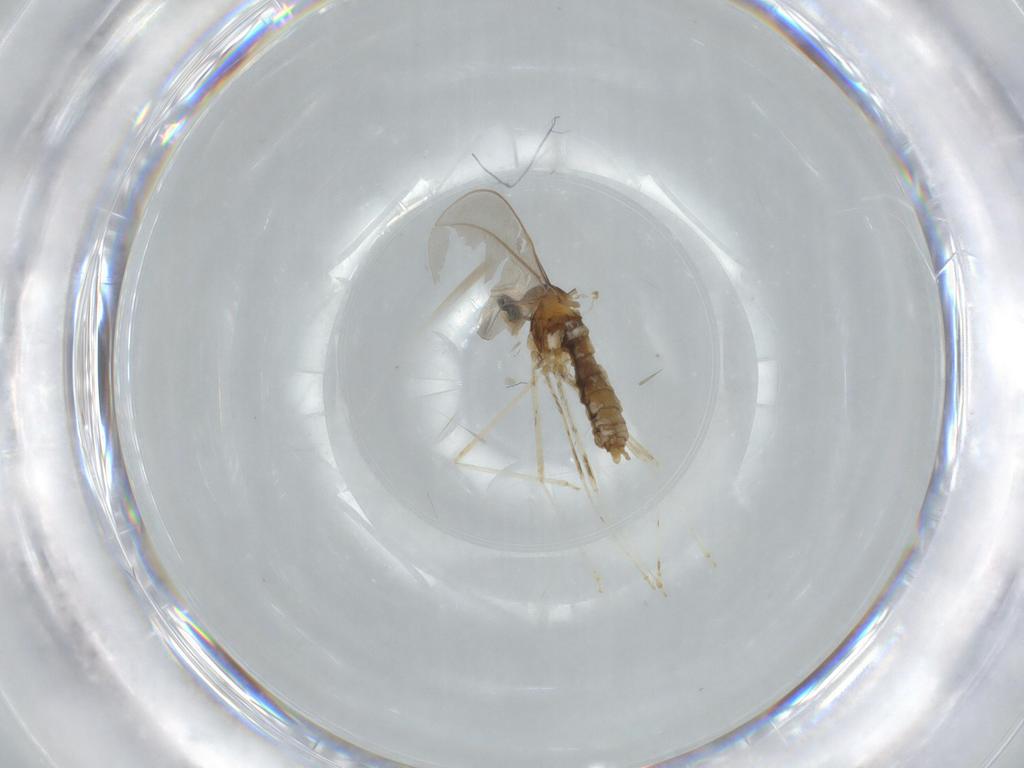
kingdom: Animalia
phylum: Arthropoda
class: Insecta
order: Diptera
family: Cecidomyiidae
